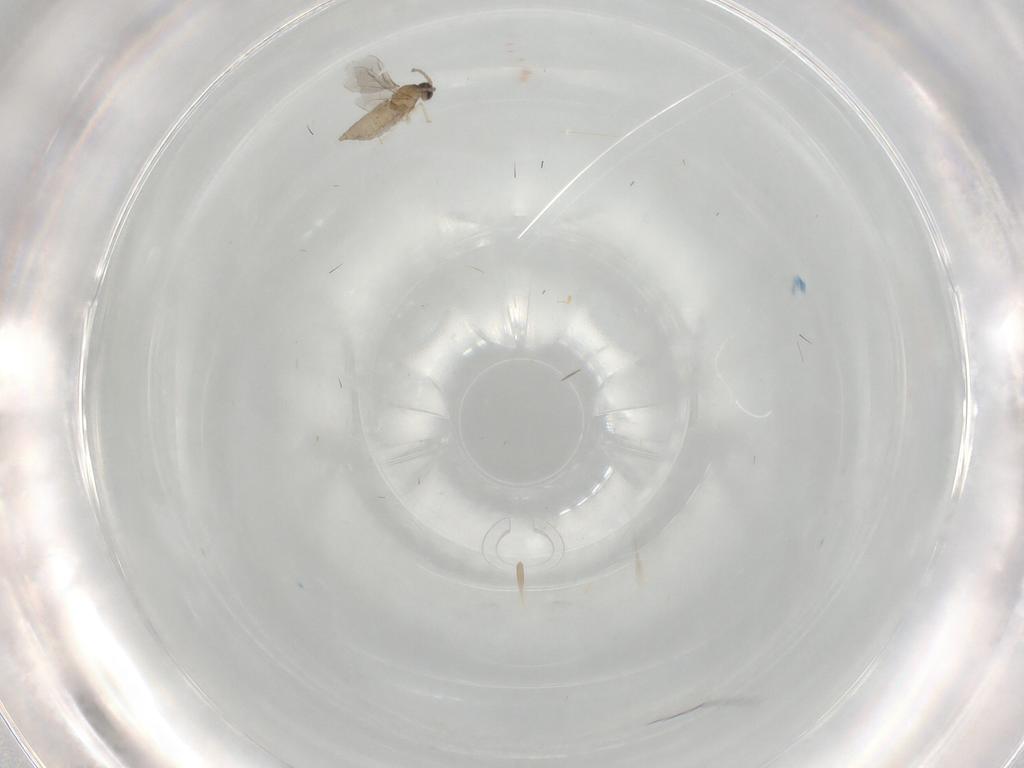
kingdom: Animalia
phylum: Arthropoda
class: Insecta
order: Diptera
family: Cecidomyiidae
